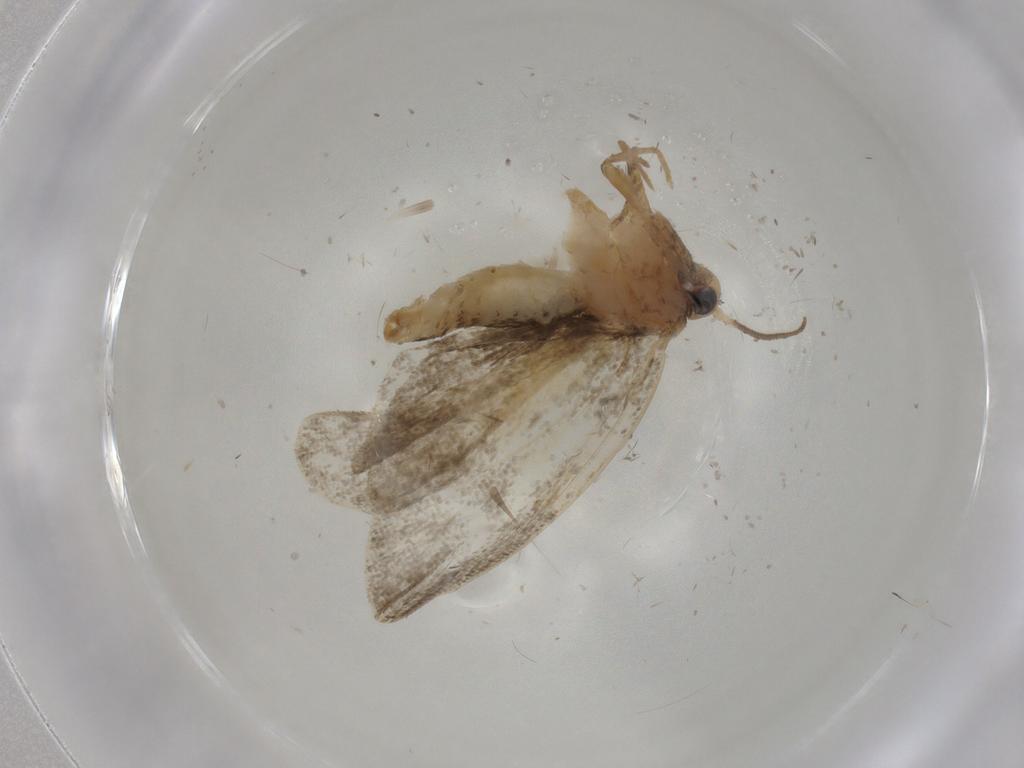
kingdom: Animalia
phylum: Arthropoda
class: Insecta
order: Lepidoptera
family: Psychidae
